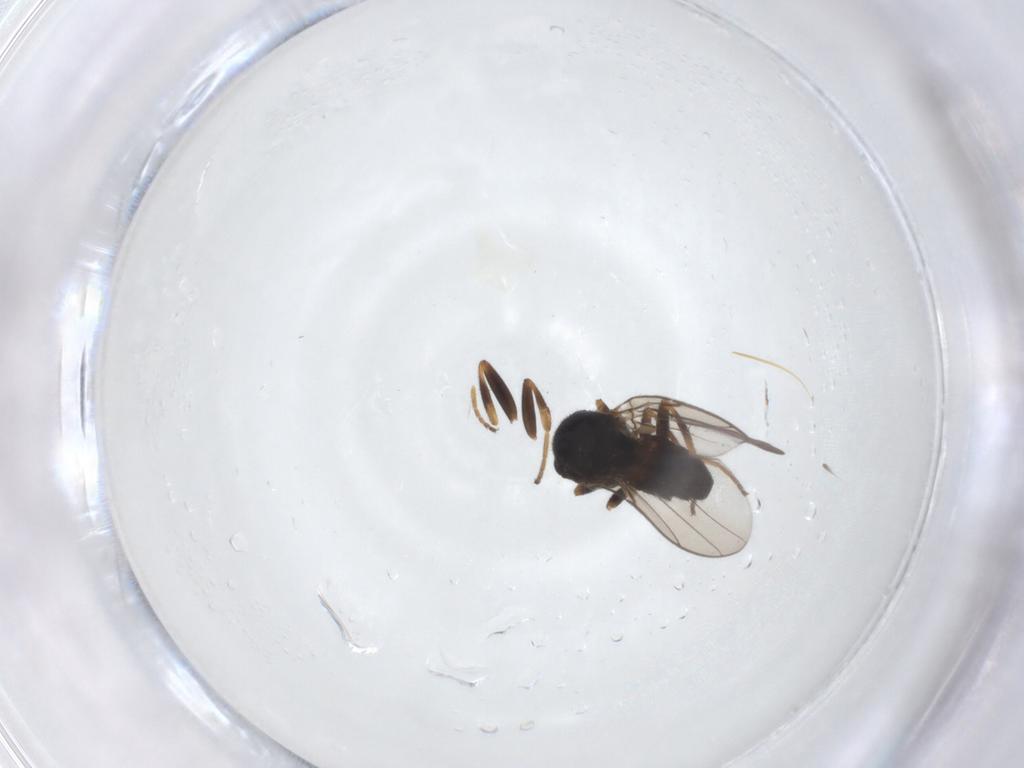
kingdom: Animalia
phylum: Arthropoda
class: Insecta
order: Diptera
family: Chloropidae
